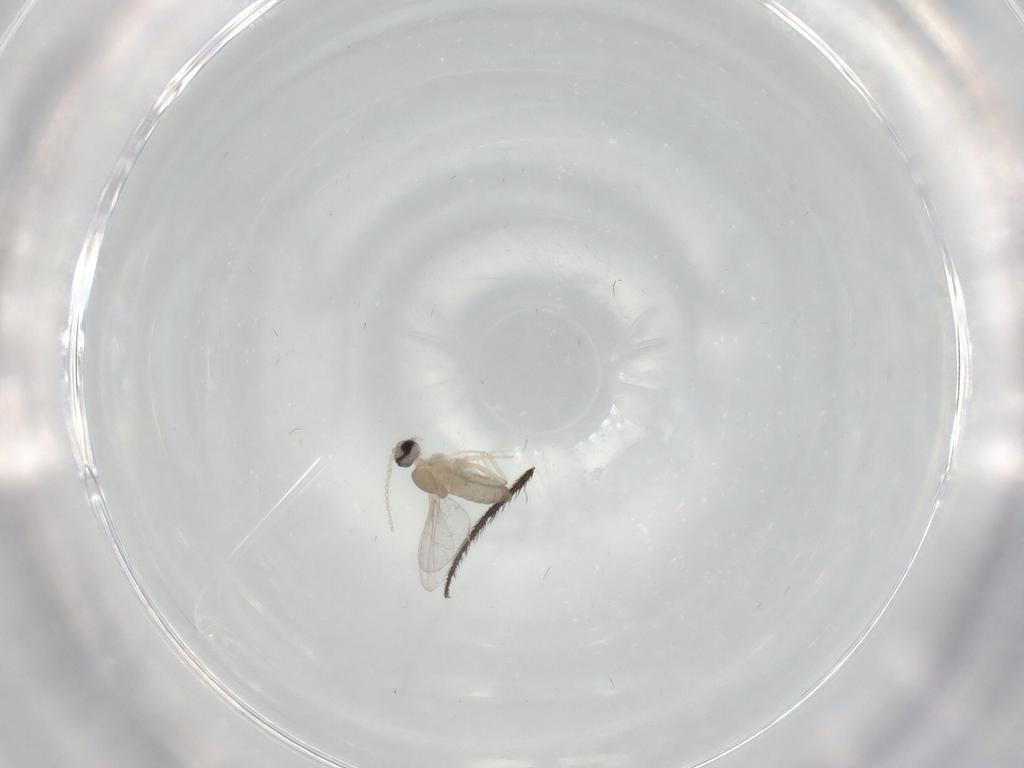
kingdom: Animalia
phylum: Arthropoda
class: Insecta
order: Diptera
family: Cecidomyiidae
